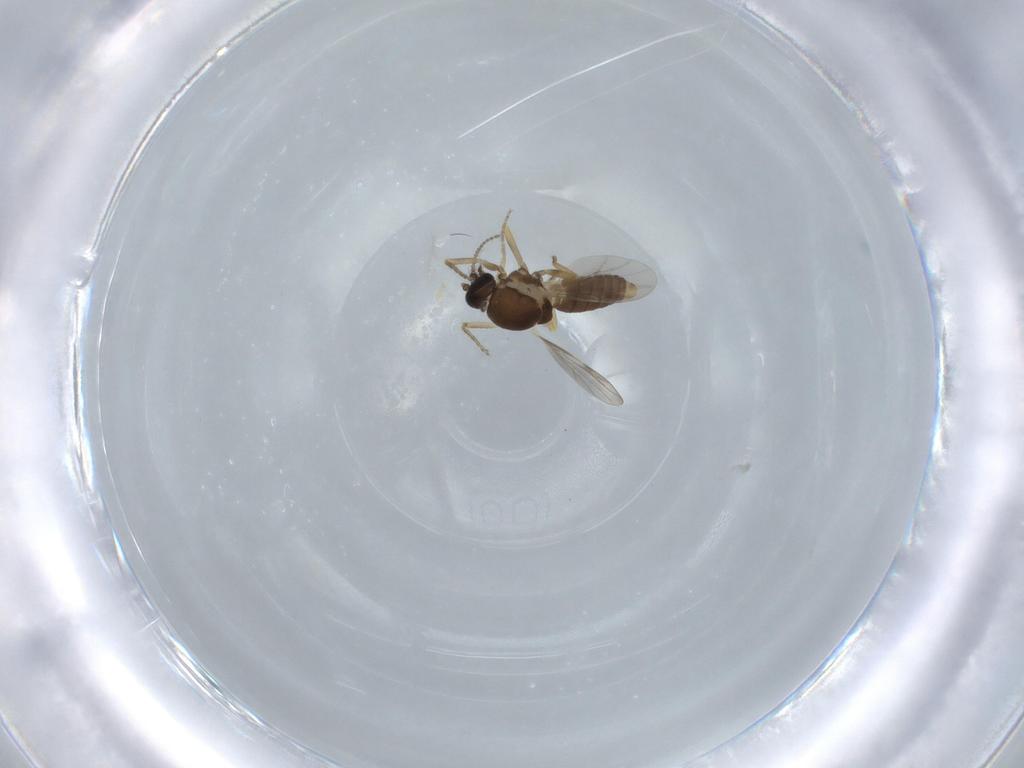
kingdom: Animalia
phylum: Arthropoda
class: Insecta
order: Diptera
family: Ceratopogonidae
